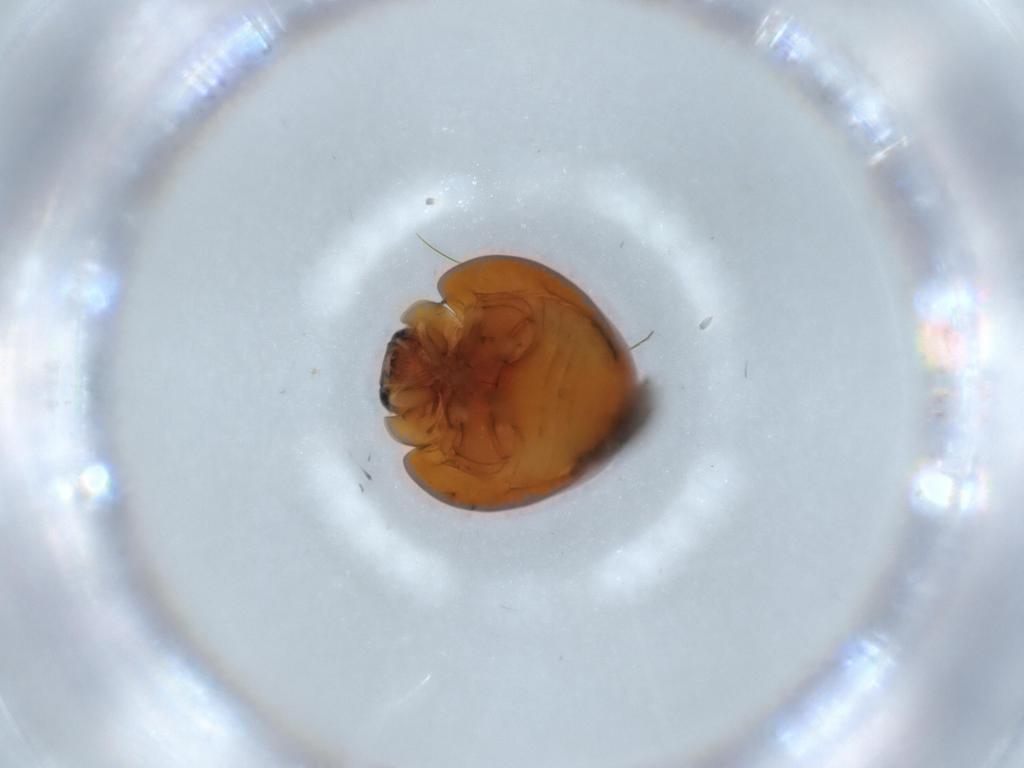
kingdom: Animalia
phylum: Arthropoda
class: Insecta
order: Coleoptera
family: Coccinellidae
